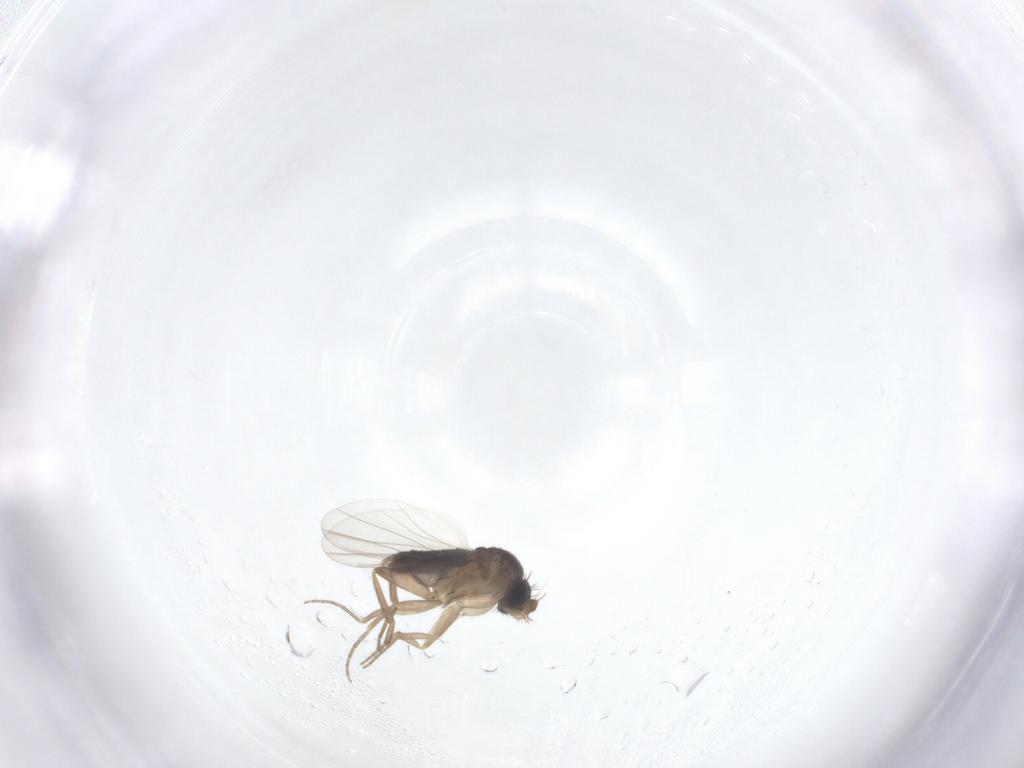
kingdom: Animalia
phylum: Arthropoda
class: Insecta
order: Diptera
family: Phoridae
